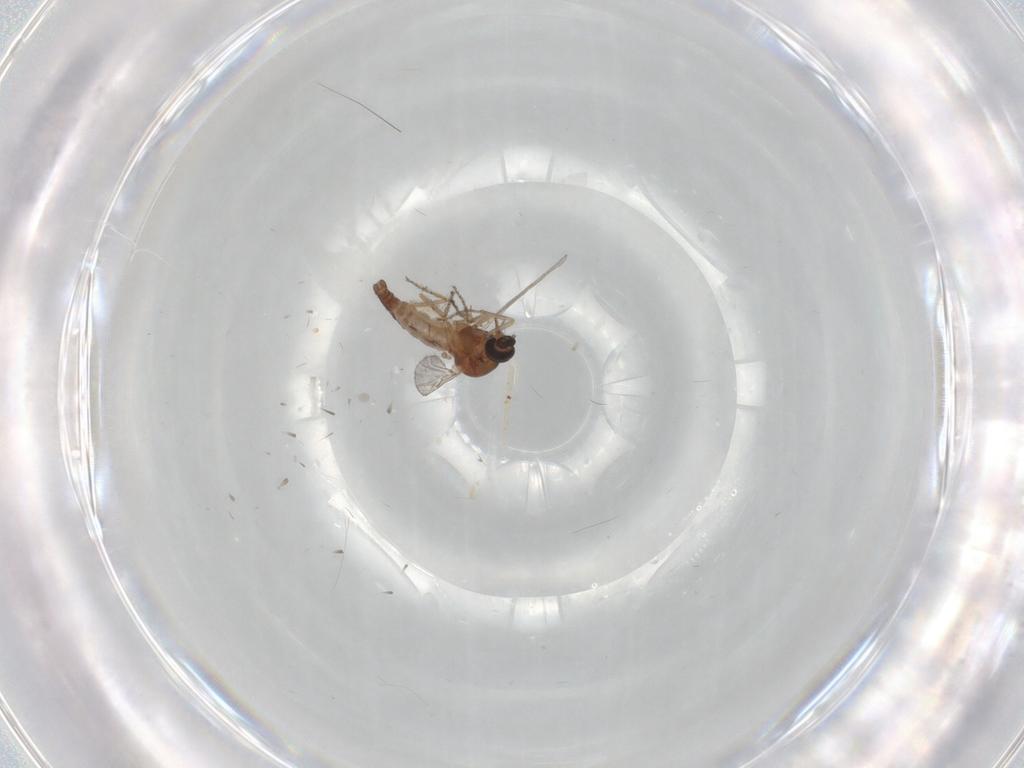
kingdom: Animalia
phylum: Arthropoda
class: Insecta
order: Diptera
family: Ceratopogonidae
